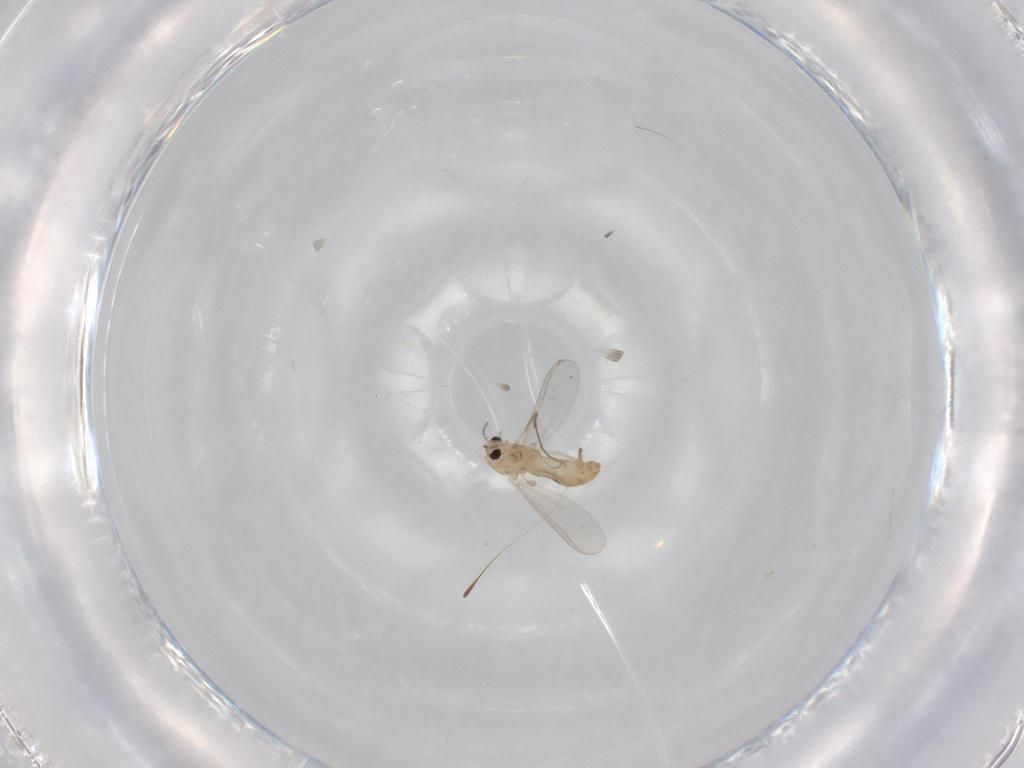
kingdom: Animalia
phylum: Arthropoda
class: Insecta
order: Diptera
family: Chironomidae
